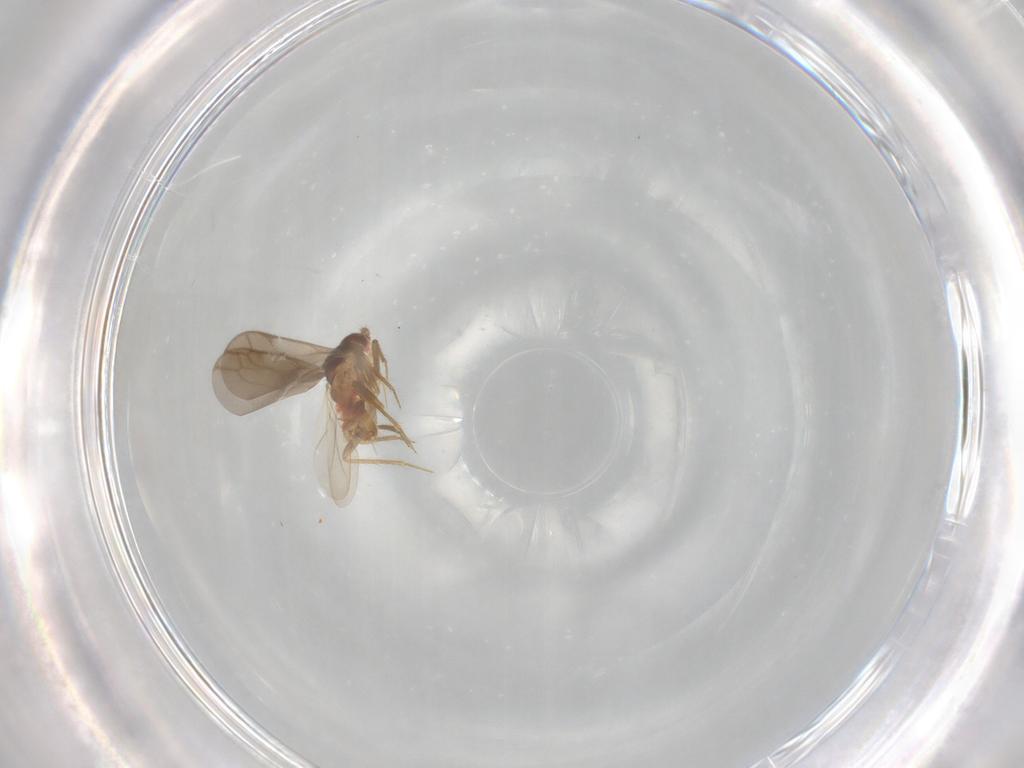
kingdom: Animalia
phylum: Arthropoda
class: Insecta
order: Hemiptera
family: Ceratocombidae
